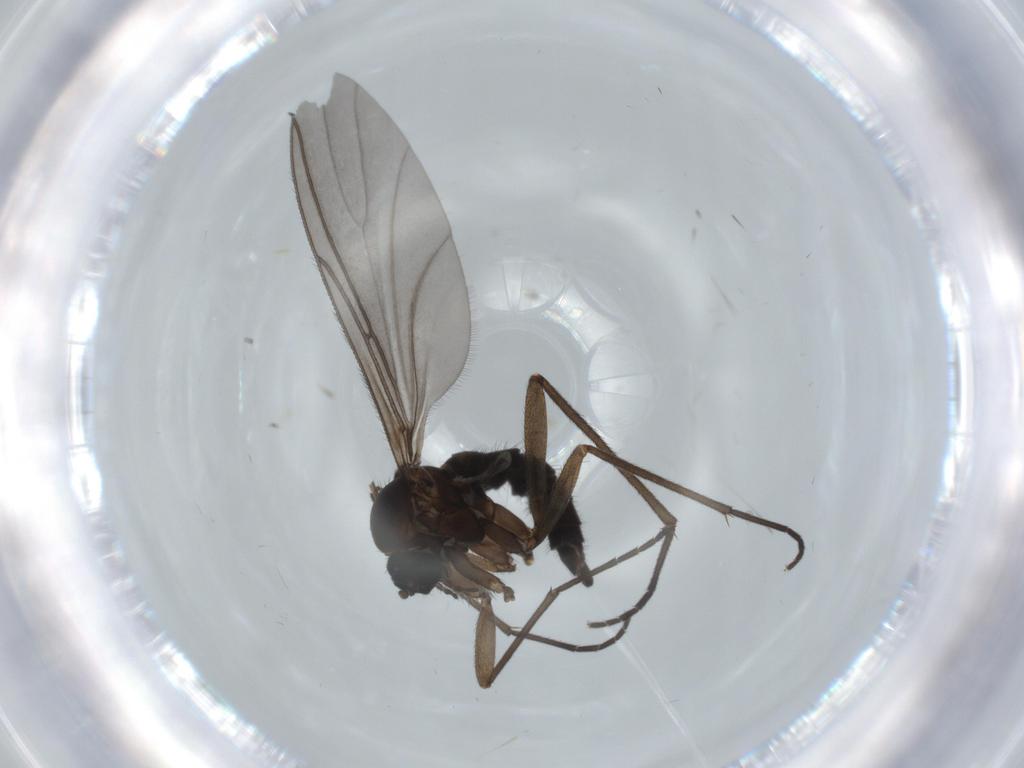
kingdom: Animalia
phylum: Arthropoda
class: Insecta
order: Diptera
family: Sciaridae
